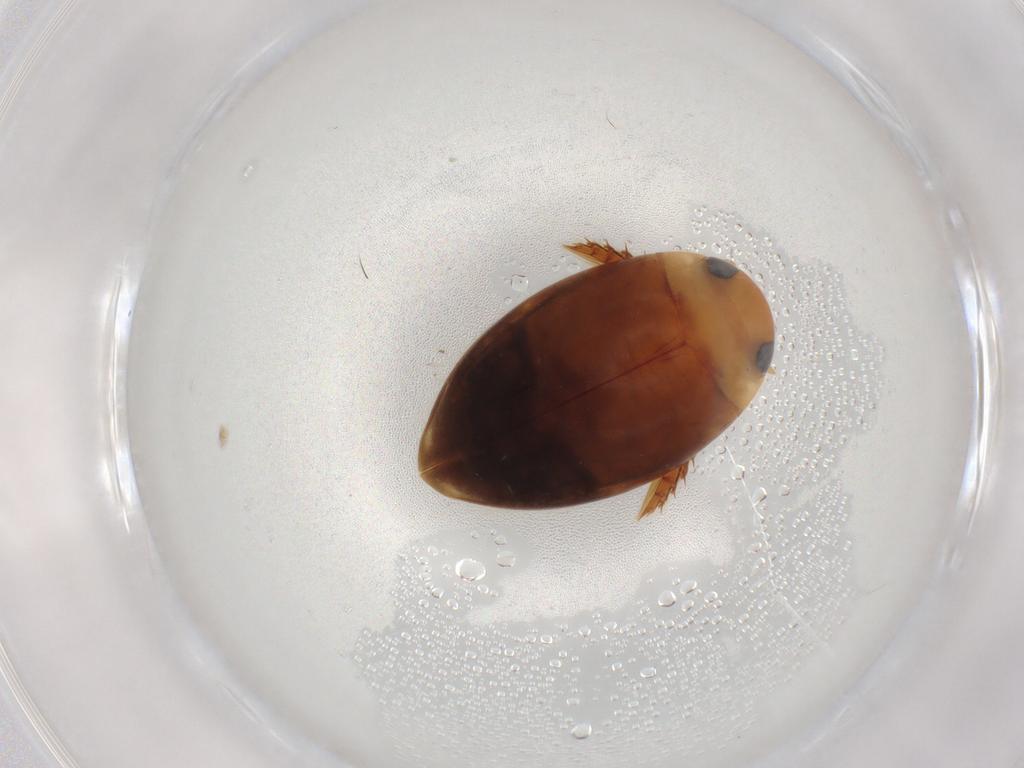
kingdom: Animalia
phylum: Arthropoda
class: Insecta
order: Coleoptera
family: Dytiscidae
